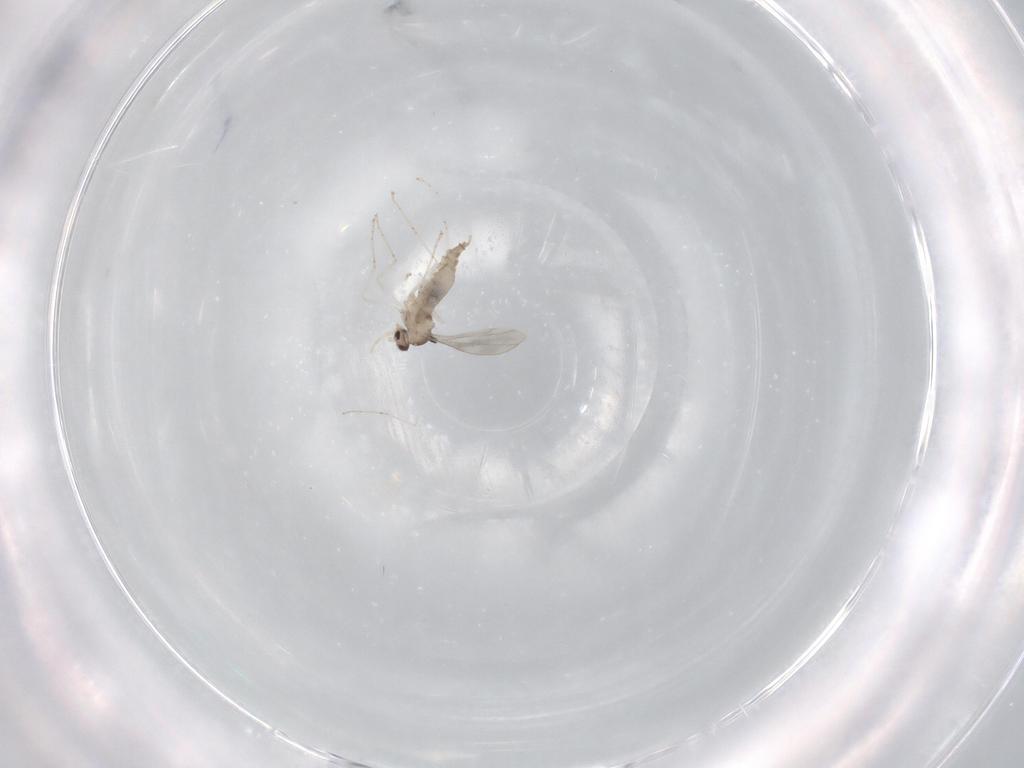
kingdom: Animalia
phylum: Arthropoda
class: Insecta
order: Diptera
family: Cecidomyiidae
